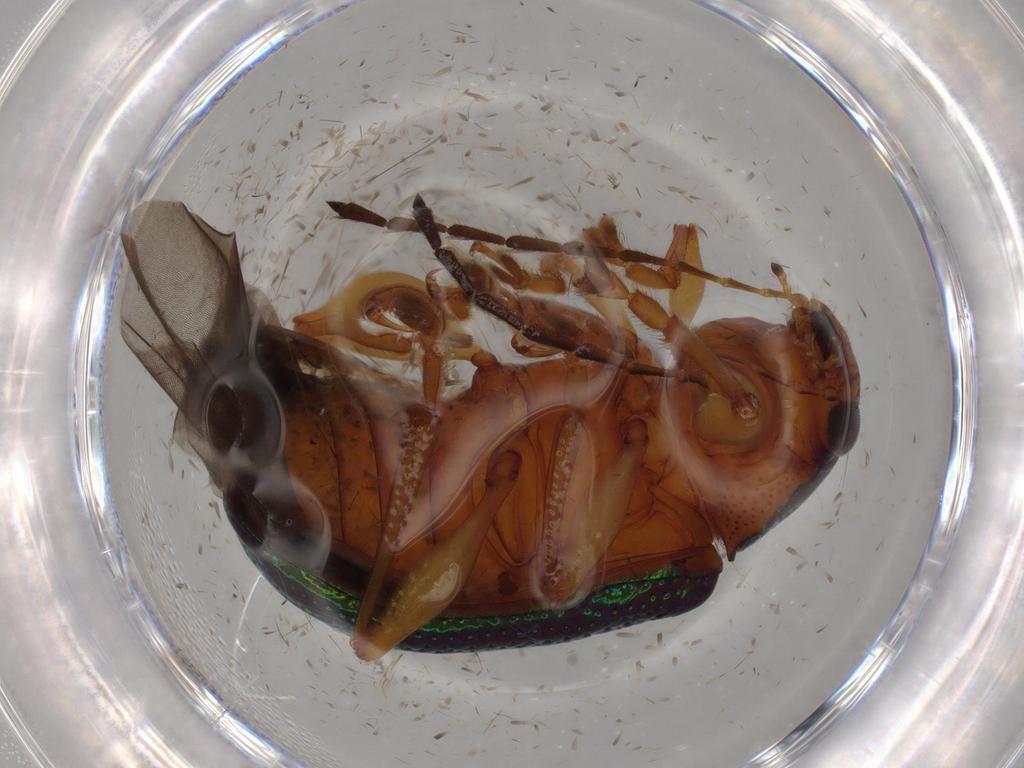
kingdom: Animalia
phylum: Arthropoda
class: Insecta
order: Coleoptera
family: Chrysomelidae
